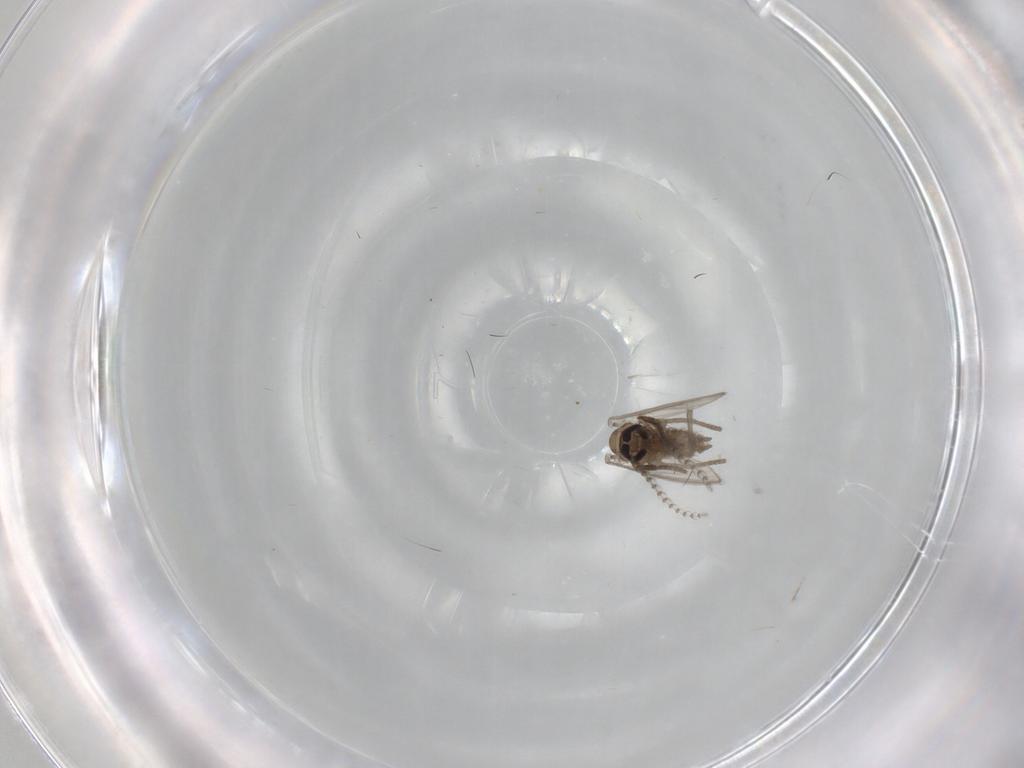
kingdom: Animalia
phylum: Arthropoda
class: Insecta
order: Diptera
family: Psychodidae
